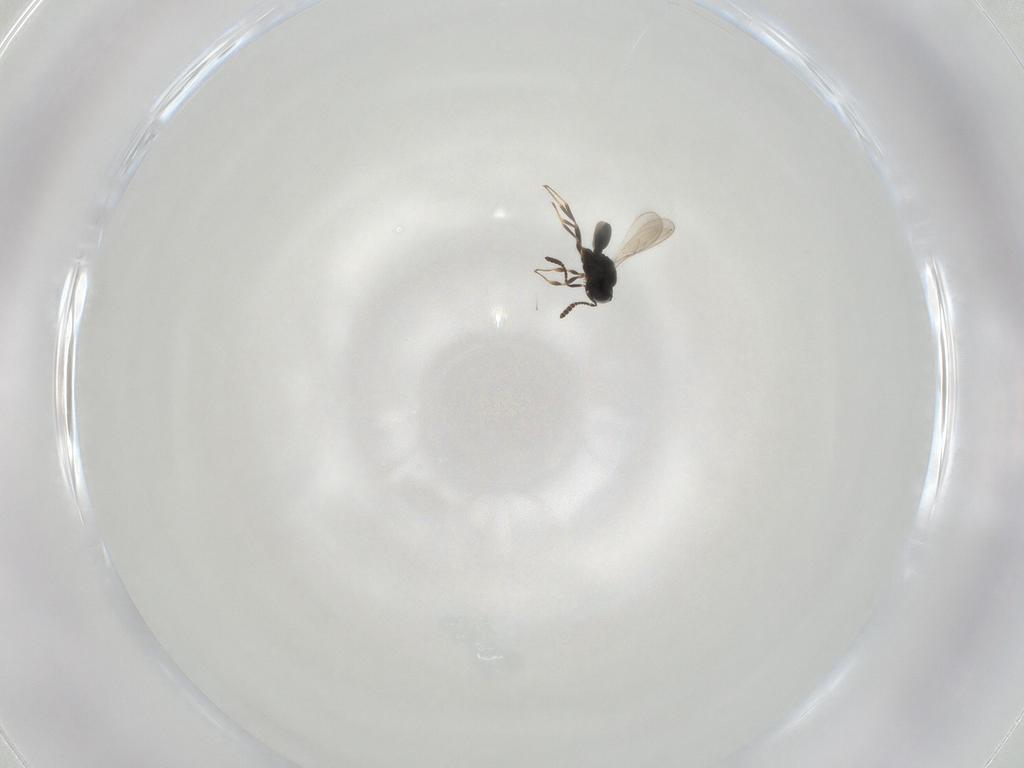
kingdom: Animalia
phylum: Arthropoda
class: Insecta
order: Hymenoptera
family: Scelionidae
